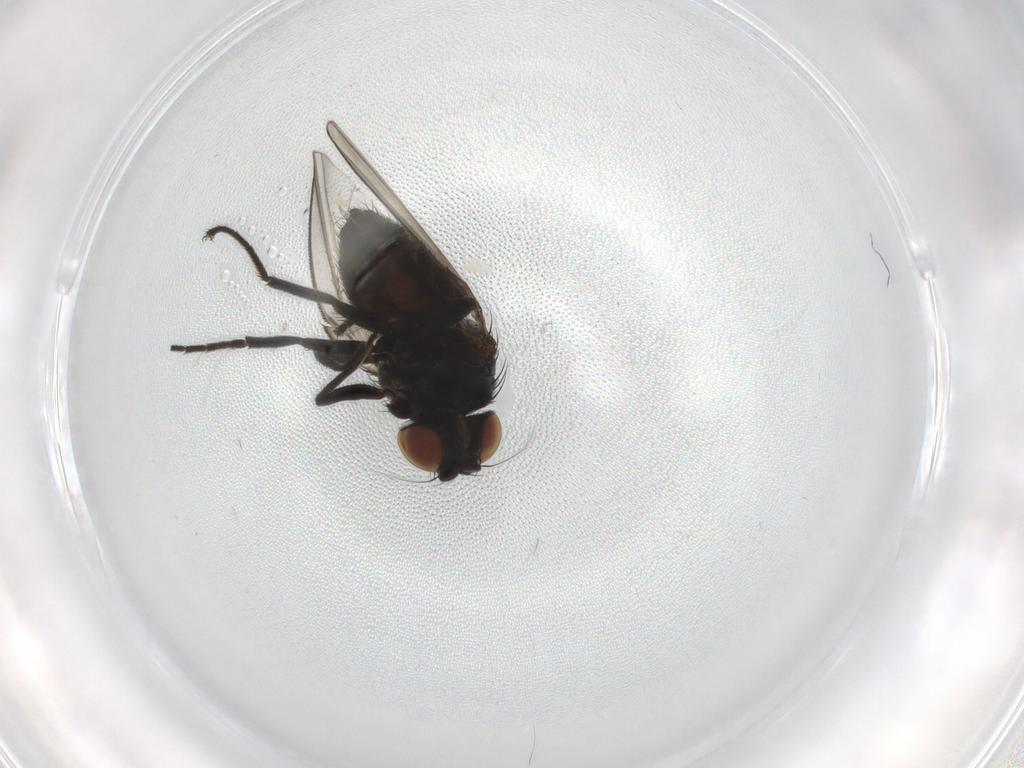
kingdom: Animalia
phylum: Arthropoda
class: Insecta
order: Diptera
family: Milichiidae
